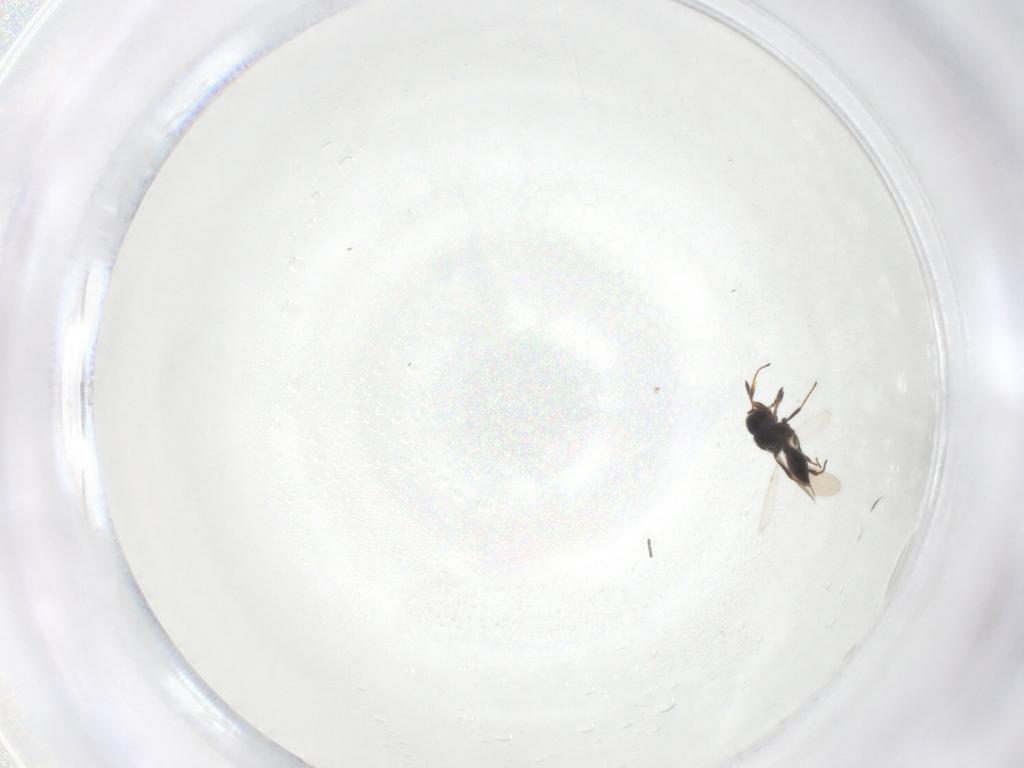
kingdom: Animalia
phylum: Arthropoda
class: Insecta
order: Hymenoptera
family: Platygastridae
